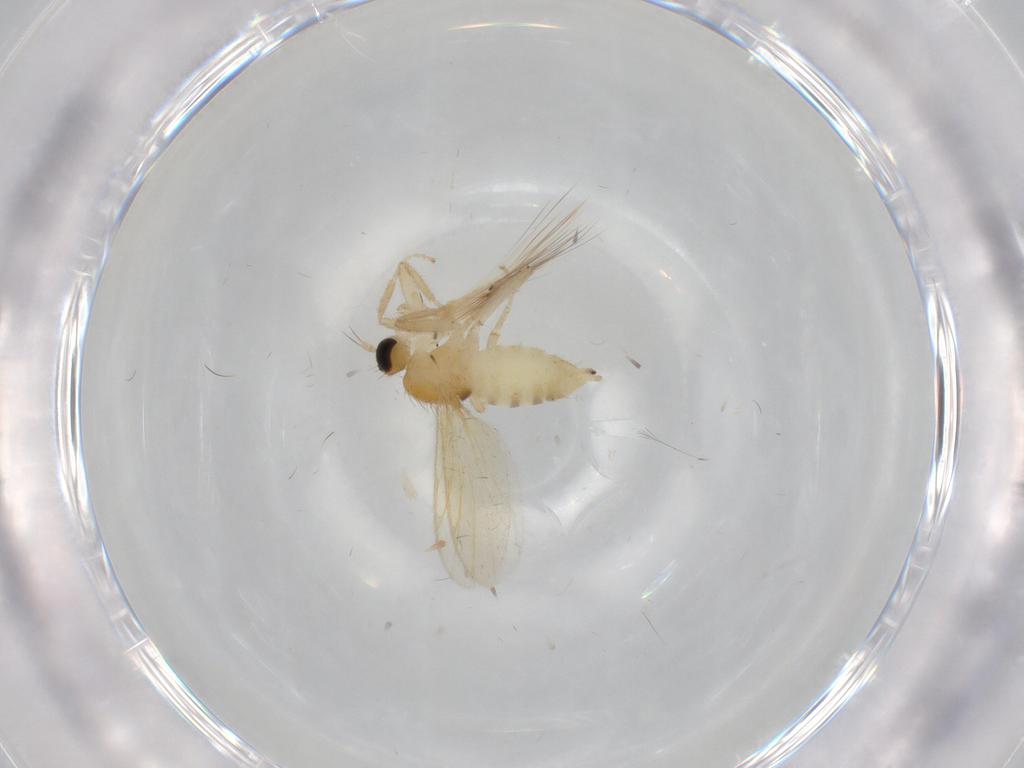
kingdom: Animalia
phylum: Arthropoda
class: Insecta
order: Diptera
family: Hybotidae
